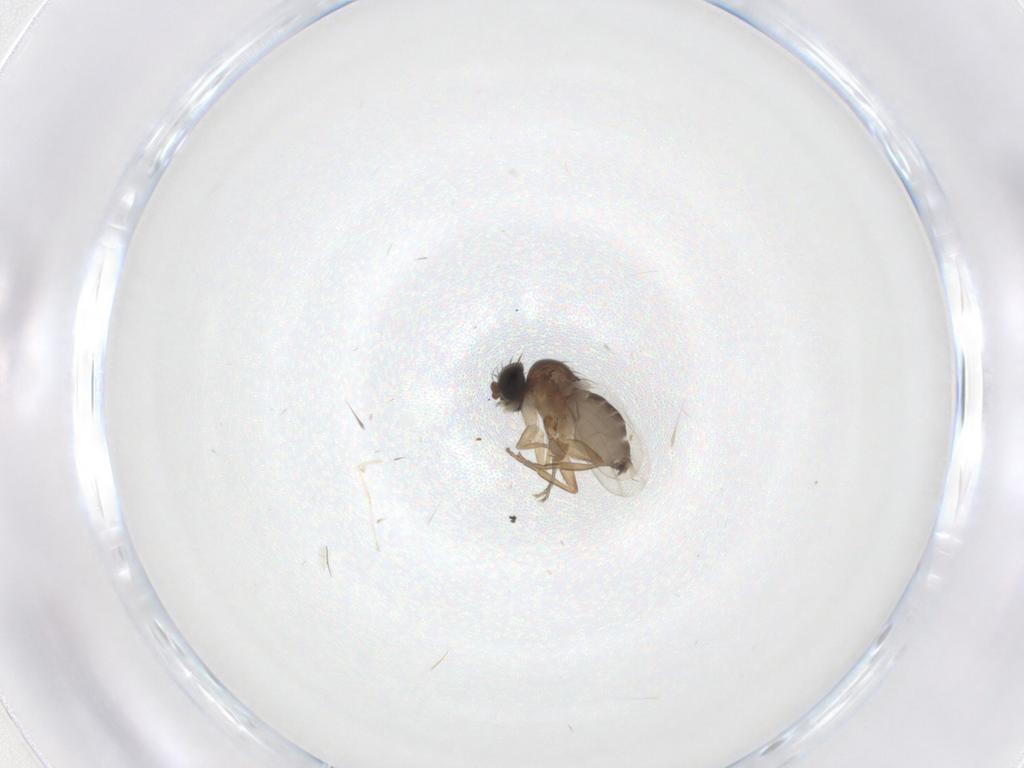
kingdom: Animalia
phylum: Arthropoda
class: Insecta
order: Diptera
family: Phoridae
